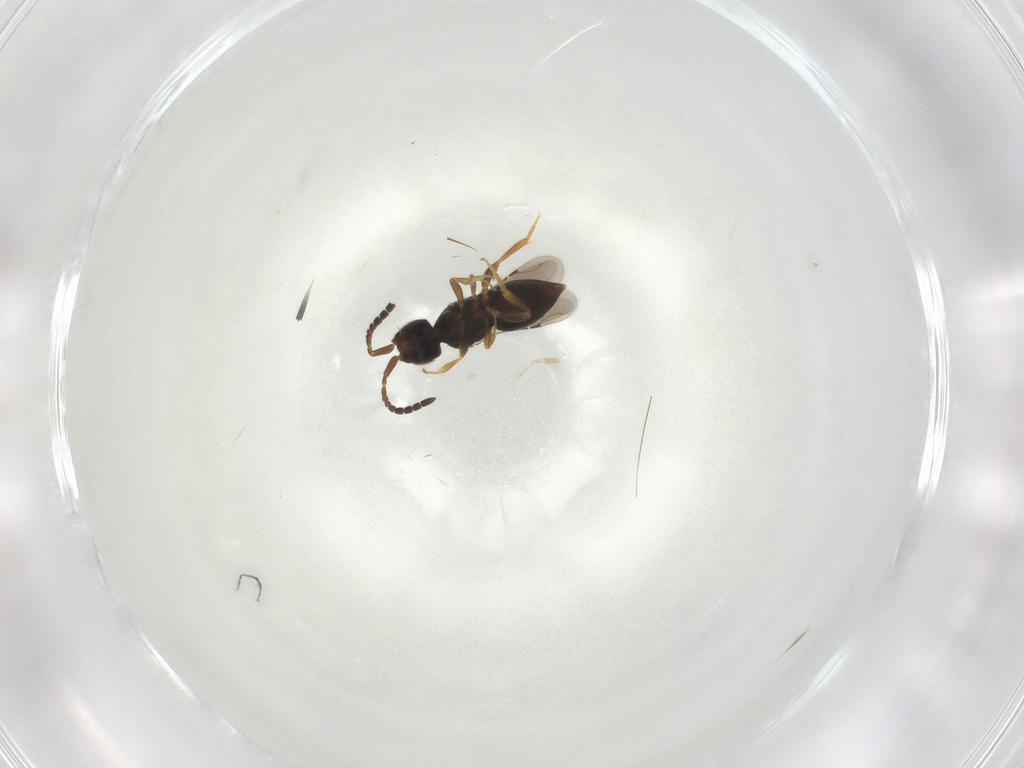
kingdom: Animalia
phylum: Arthropoda
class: Insecta
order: Hymenoptera
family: Ceraphronidae
